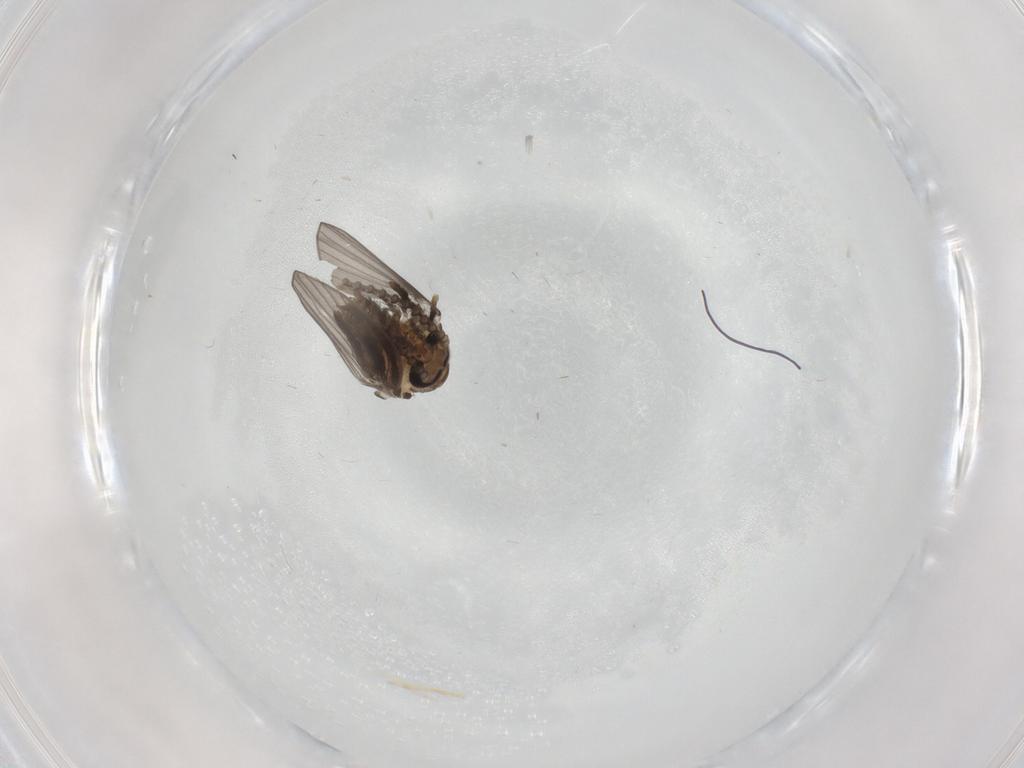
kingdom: Animalia
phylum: Arthropoda
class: Insecta
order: Diptera
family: Cecidomyiidae
